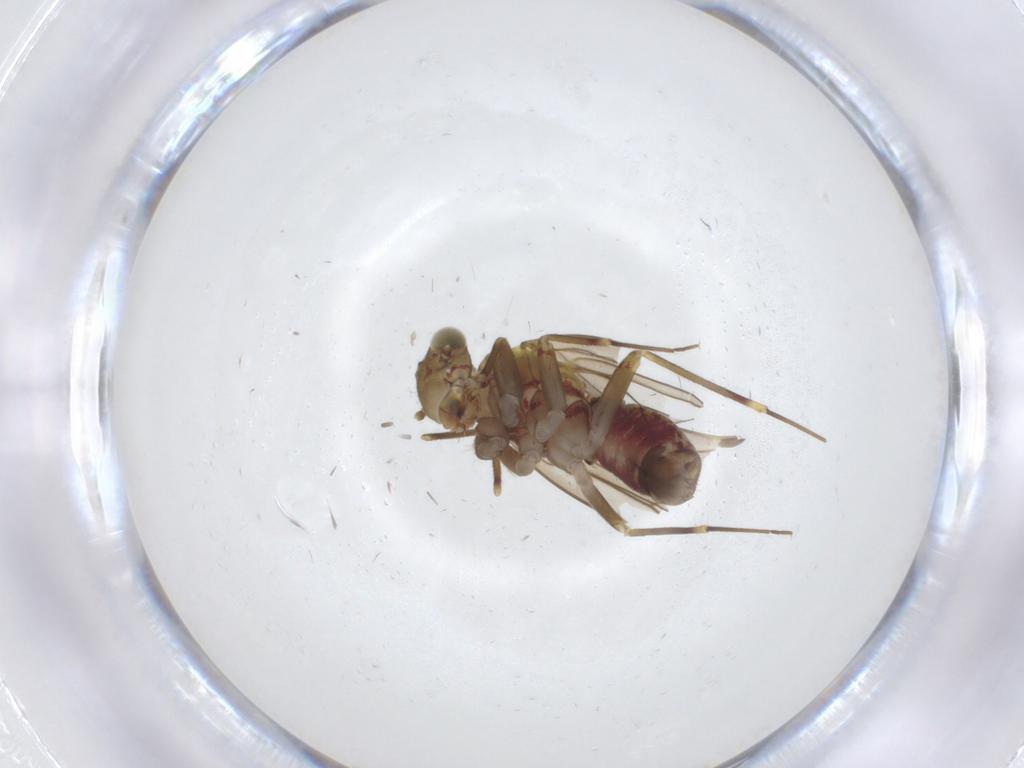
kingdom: Animalia
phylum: Arthropoda
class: Insecta
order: Psocodea
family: Philotarsidae
